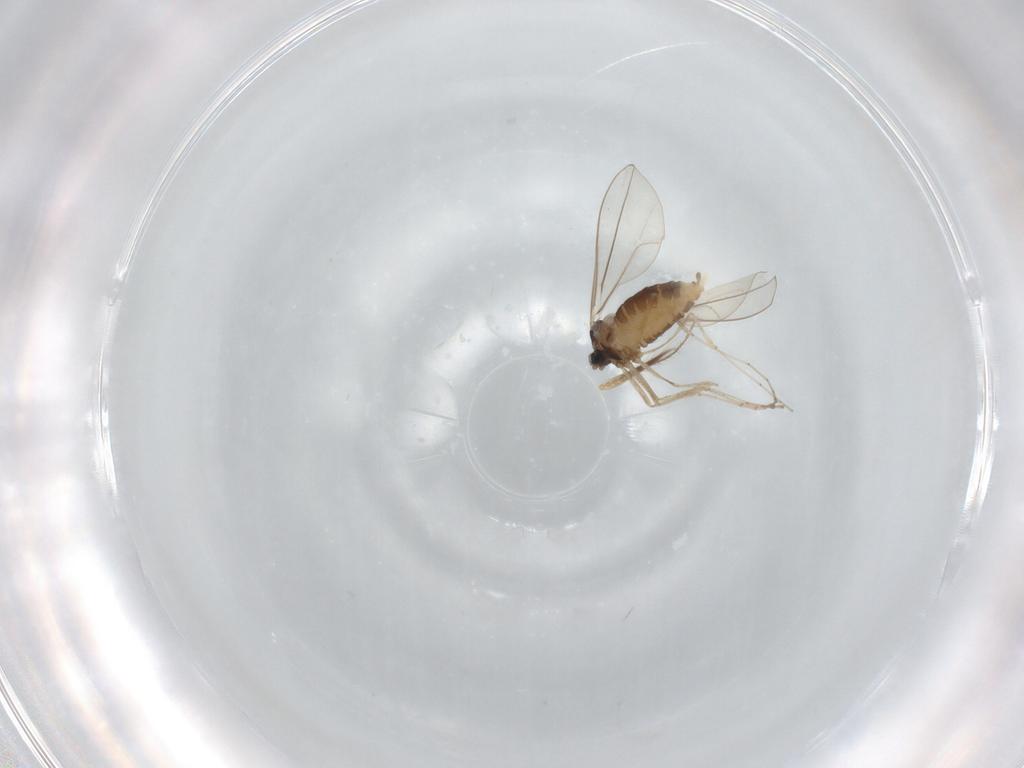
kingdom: Animalia
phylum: Arthropoda
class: Insecta
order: Diptera
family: Cecidomyiidae
